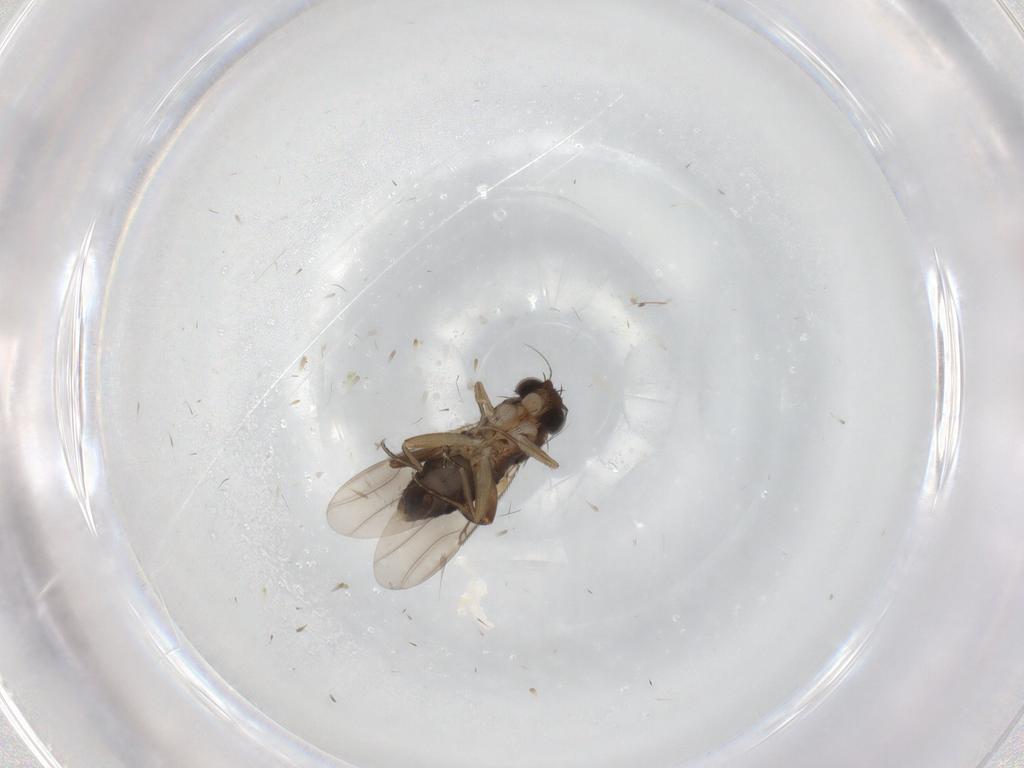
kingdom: Animalia
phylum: Arthropoda
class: Insecta
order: Diptera
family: Phoridae
